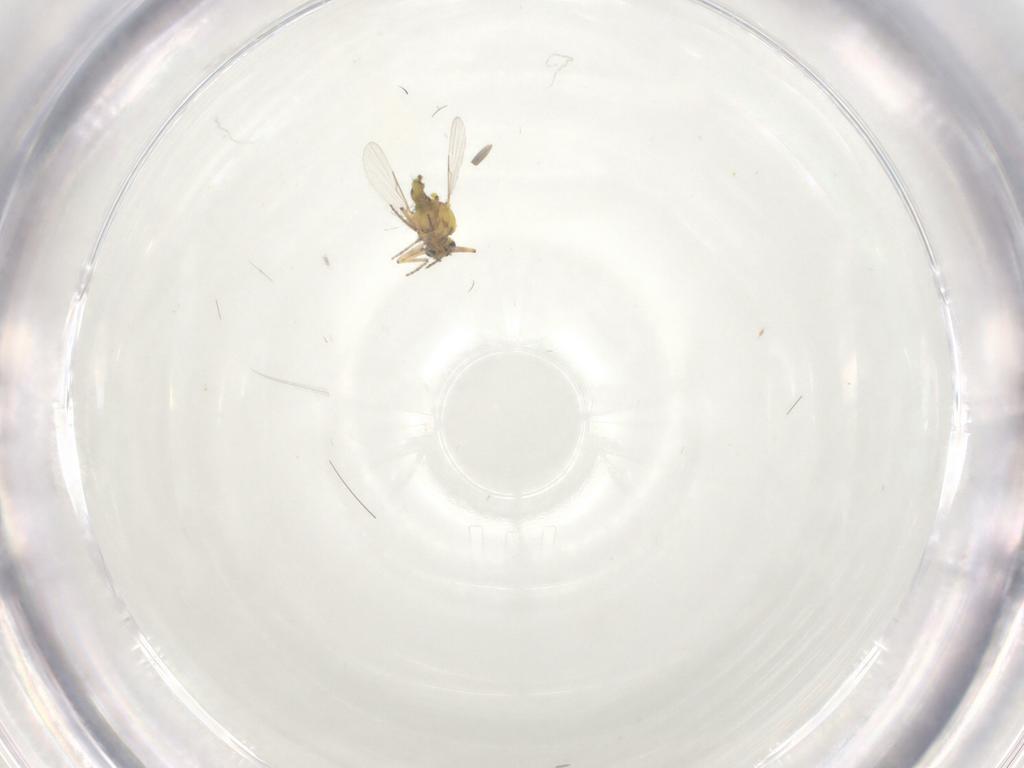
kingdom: Animalia
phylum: Arthropoda
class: Insecta
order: Diptera
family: Ceratopogonidae
